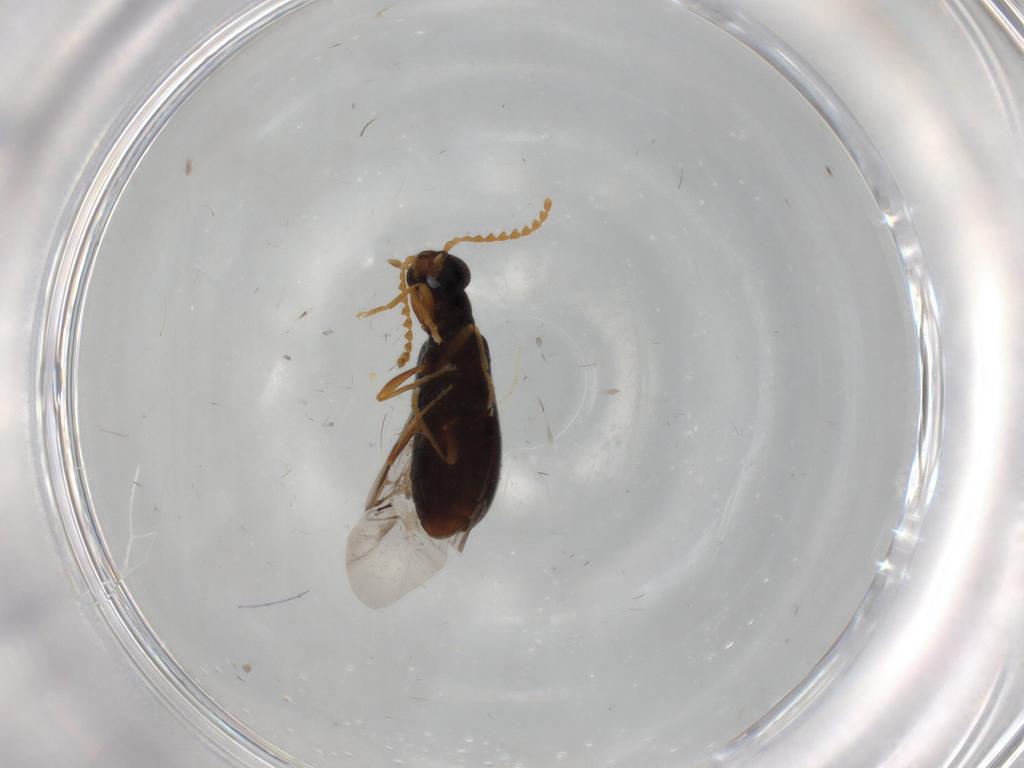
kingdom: Animalia
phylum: Arthropoda
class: Insecta
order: Coleoptera
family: Mycteridae
